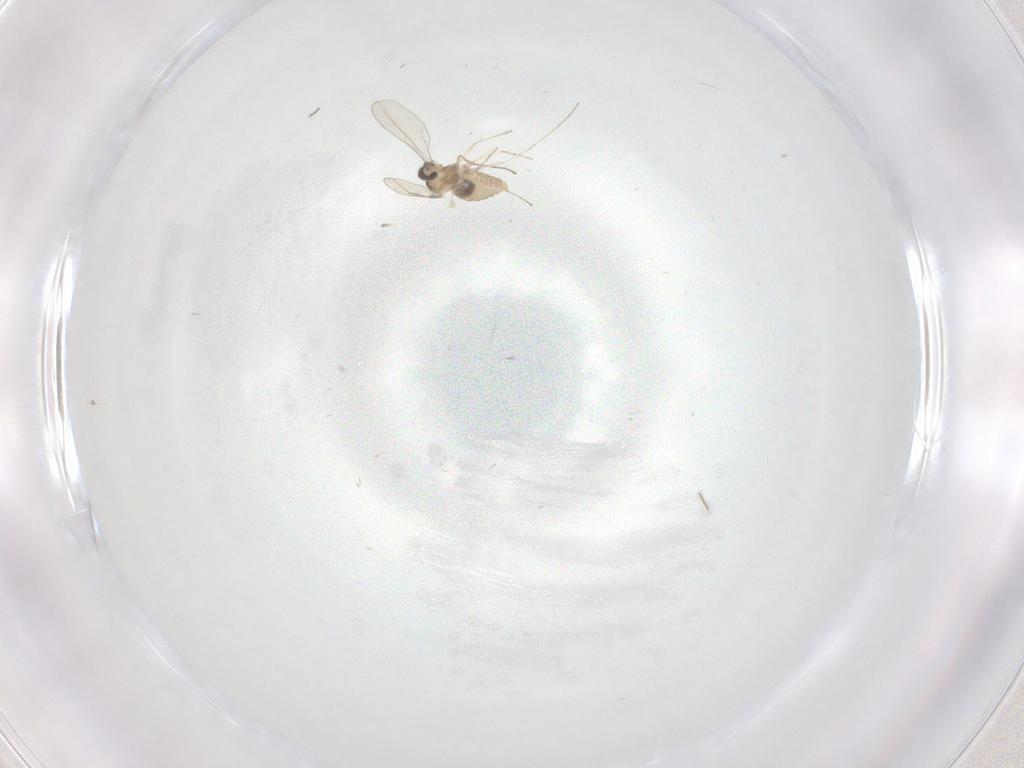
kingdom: Animalia
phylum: Arthropoda
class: Insecta
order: Diptera
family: Cecidomyiidae
